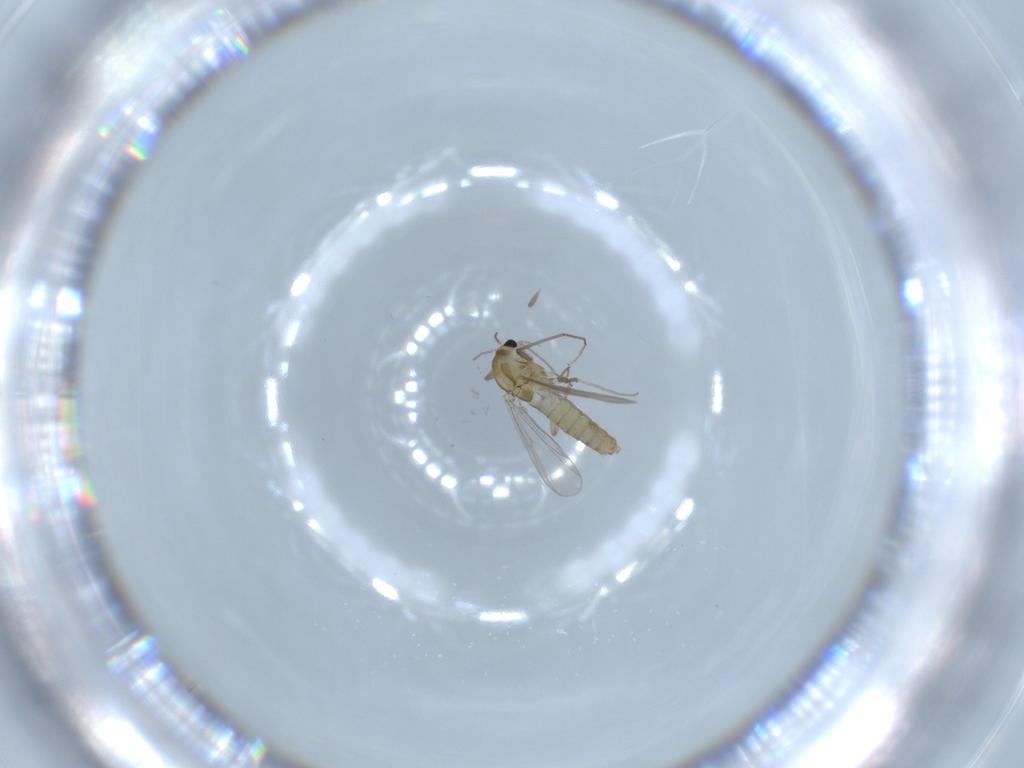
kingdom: Animalia
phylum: Arthropoda
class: Insecta
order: Diptera
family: Chironomidae
